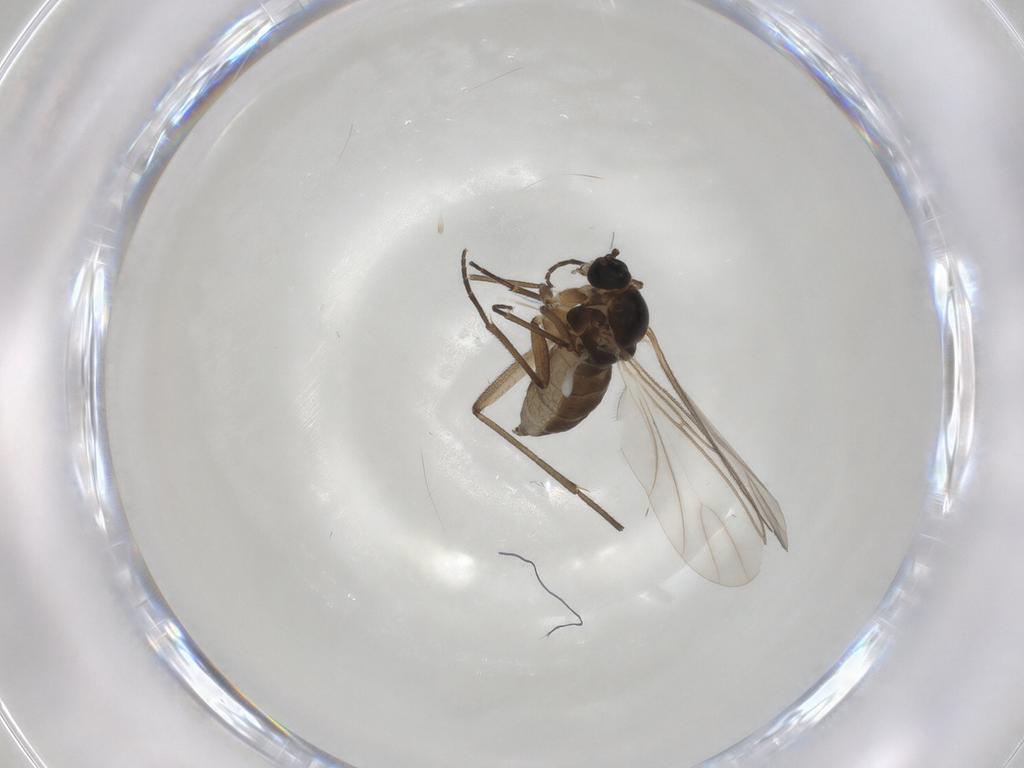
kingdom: Animalia
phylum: Arthropoda
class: Insecta
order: Diptera
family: Sciaridae
